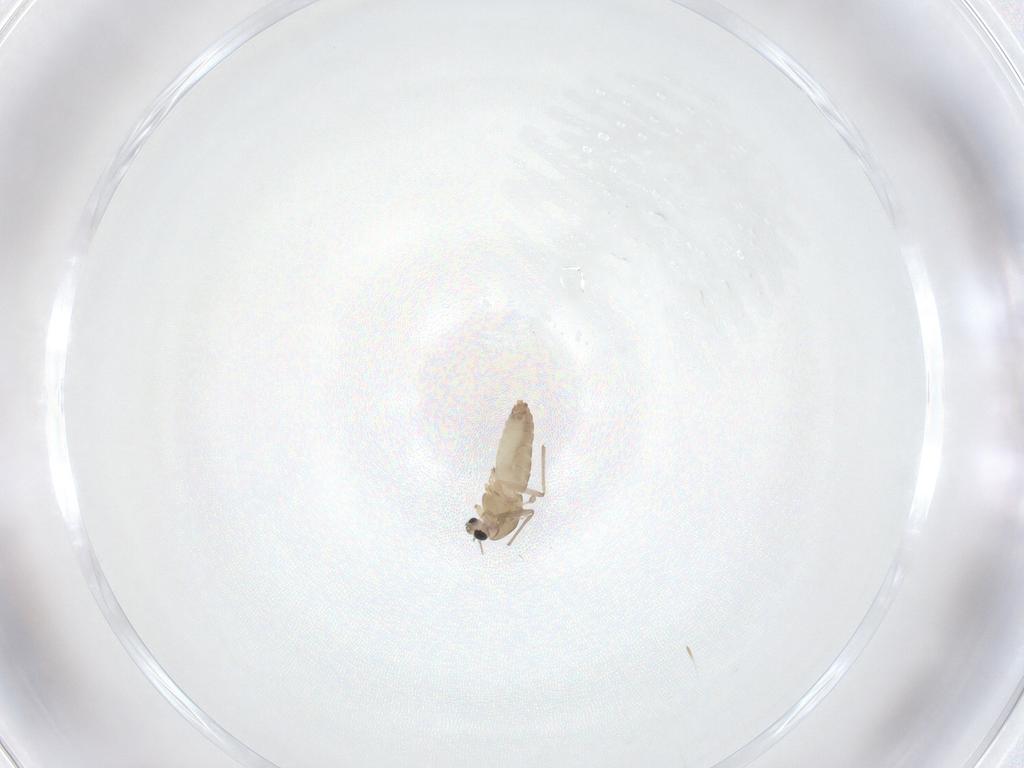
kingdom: Animalia
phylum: Arthropoda
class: Insecta
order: Diptera
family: Chironomidae
